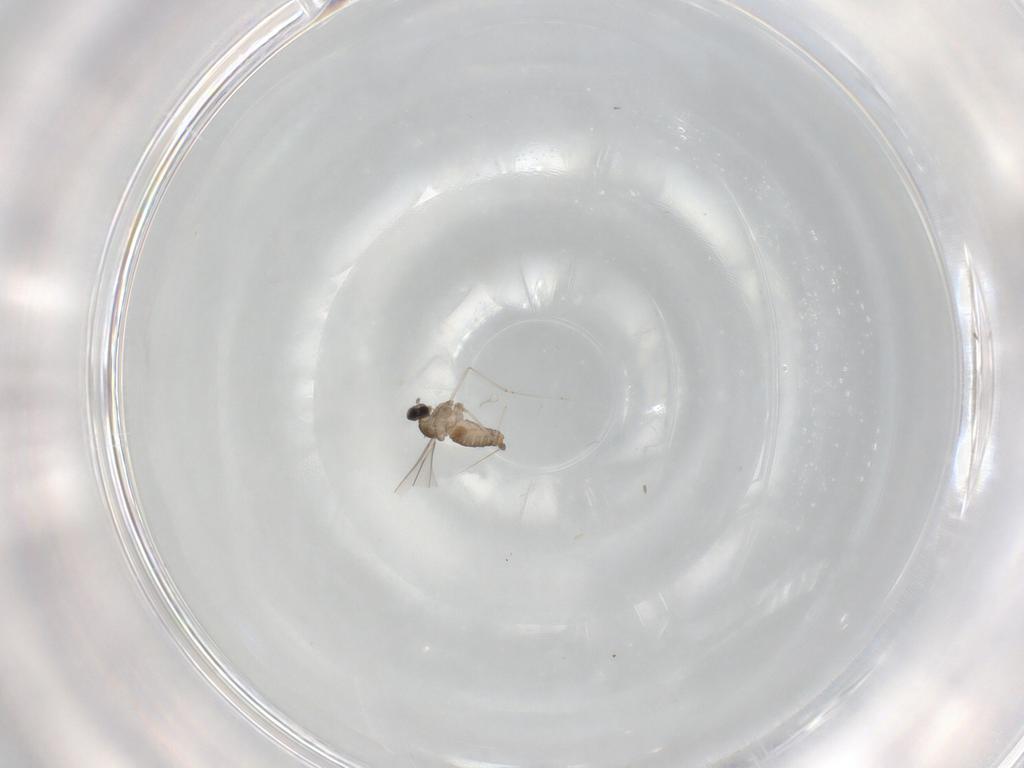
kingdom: Animalia
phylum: Arthropoda
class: Insecta
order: Diptera
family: Cecidomyiidae
